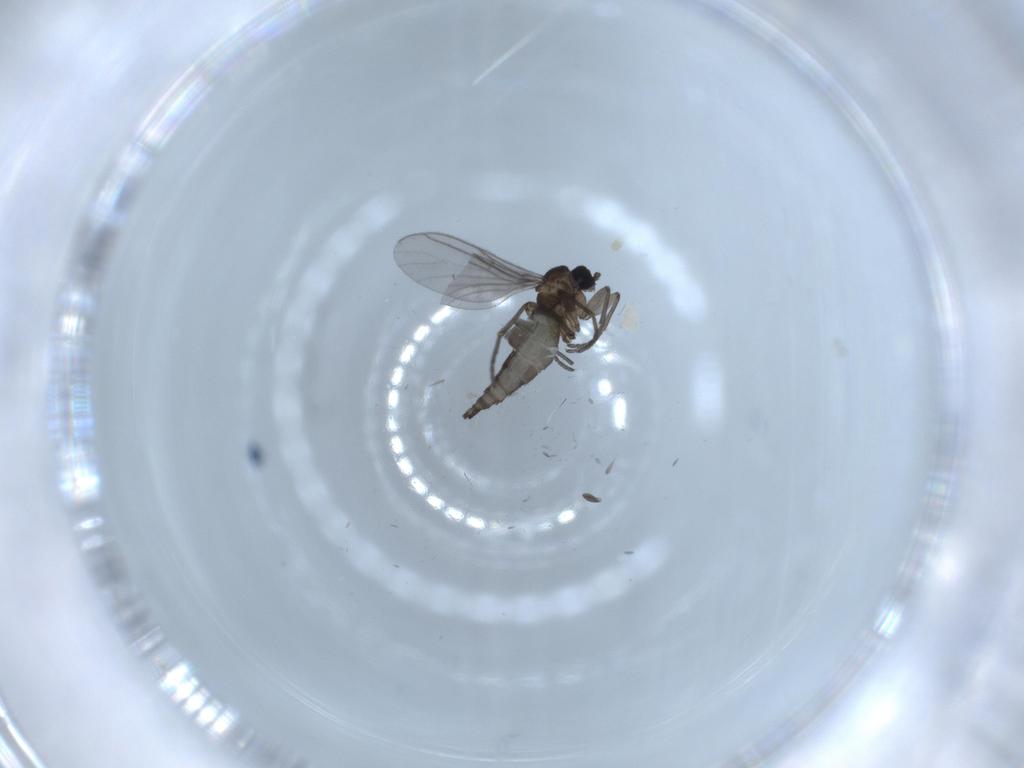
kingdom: Animalia
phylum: Arthropoda
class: Insecta
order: Diptera
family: Syrphidae
